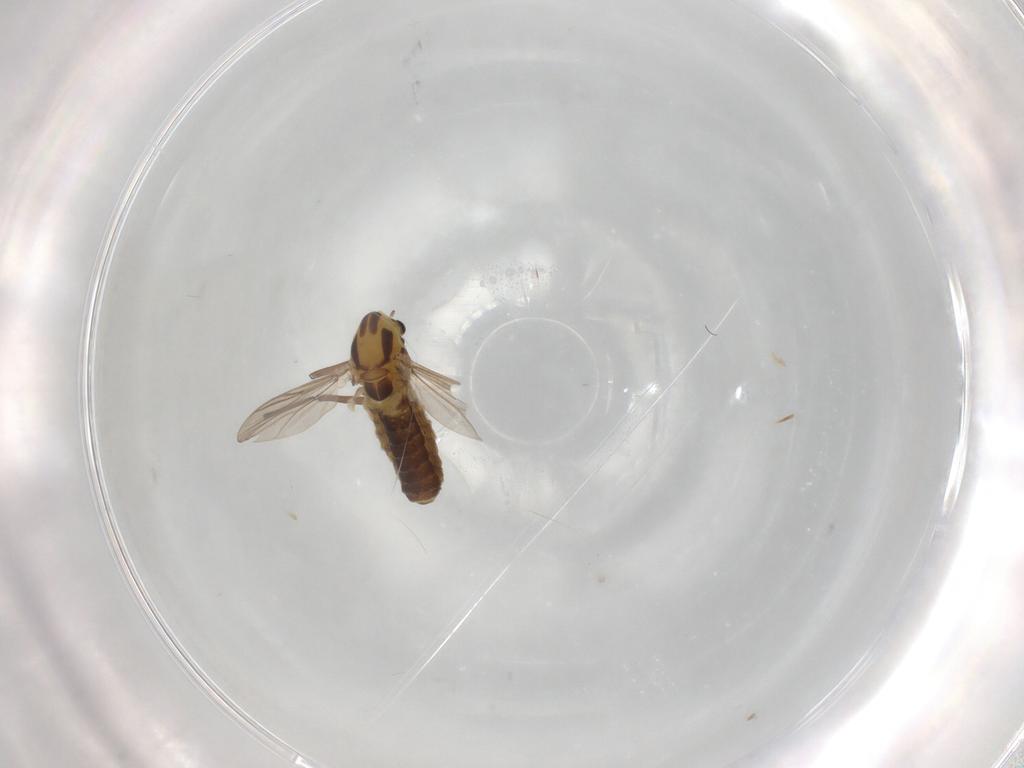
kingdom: Animalia
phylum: Arthropoda
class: Insecta
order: Diptera
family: Chironomidae
